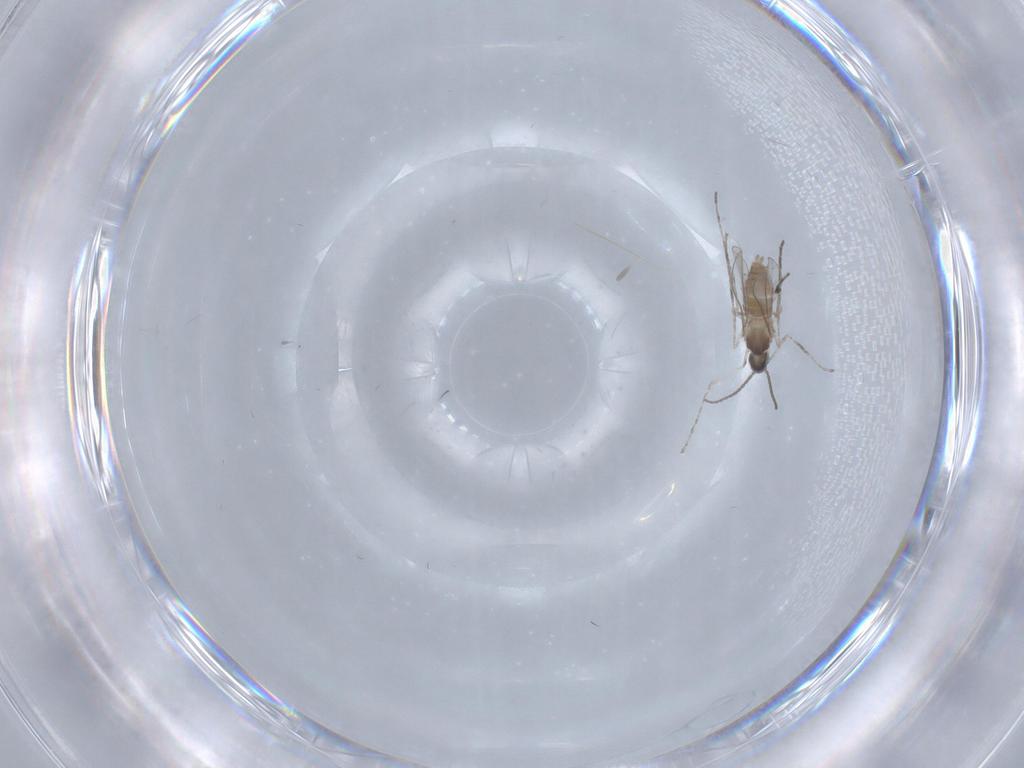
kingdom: Animalia
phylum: Arthropoda
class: Insecta
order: Diptera
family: Cecidomyiidae
